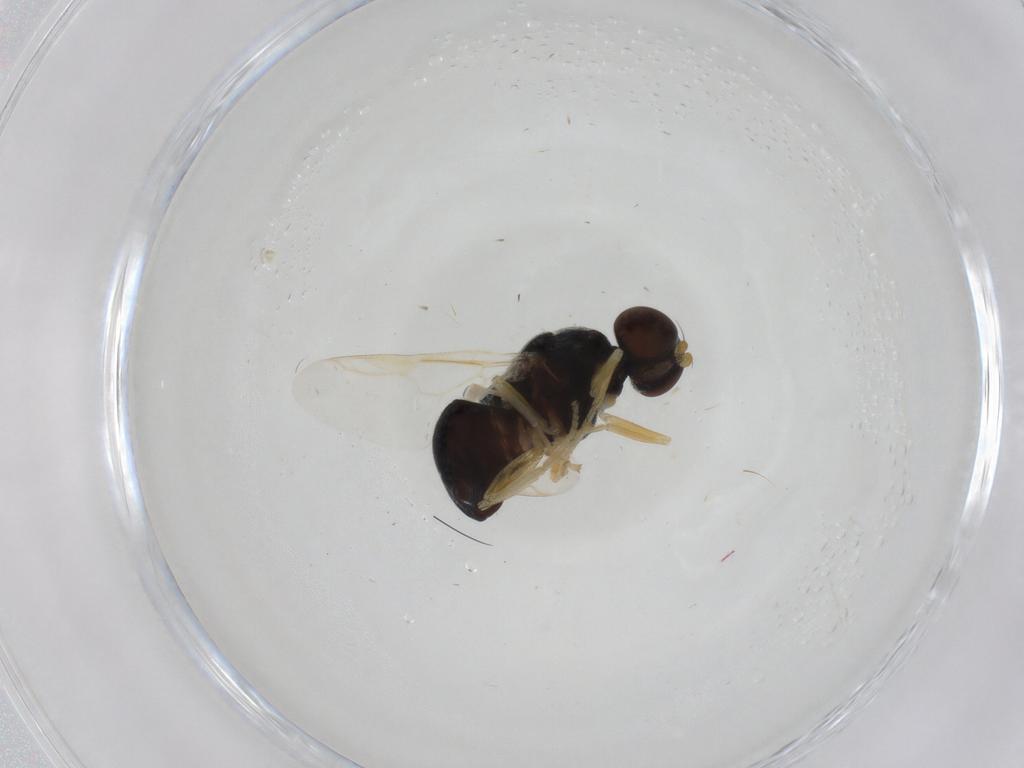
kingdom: Animalia
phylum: Arthropoda
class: Insecta
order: Diptera
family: Stratiomyidae
